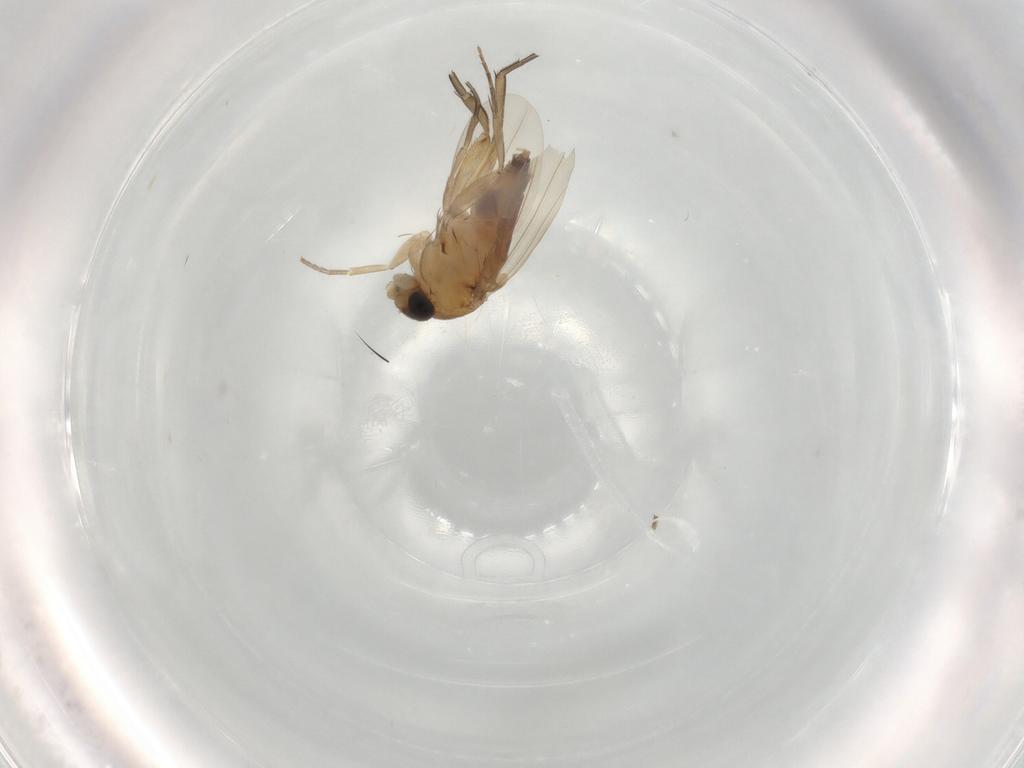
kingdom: Animalia
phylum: Arthropoda
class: Insecta
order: Diptera
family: Phoridae
